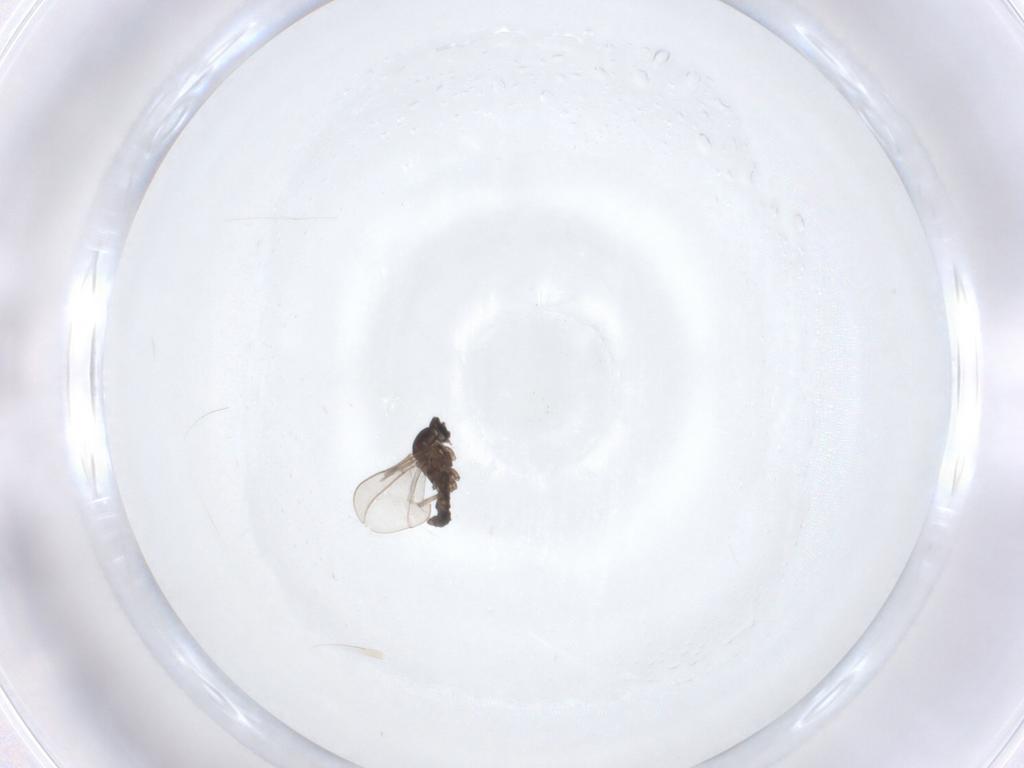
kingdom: Animalia
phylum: Arthropoda
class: Insecta
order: Diptera
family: Cecidomyiidae
